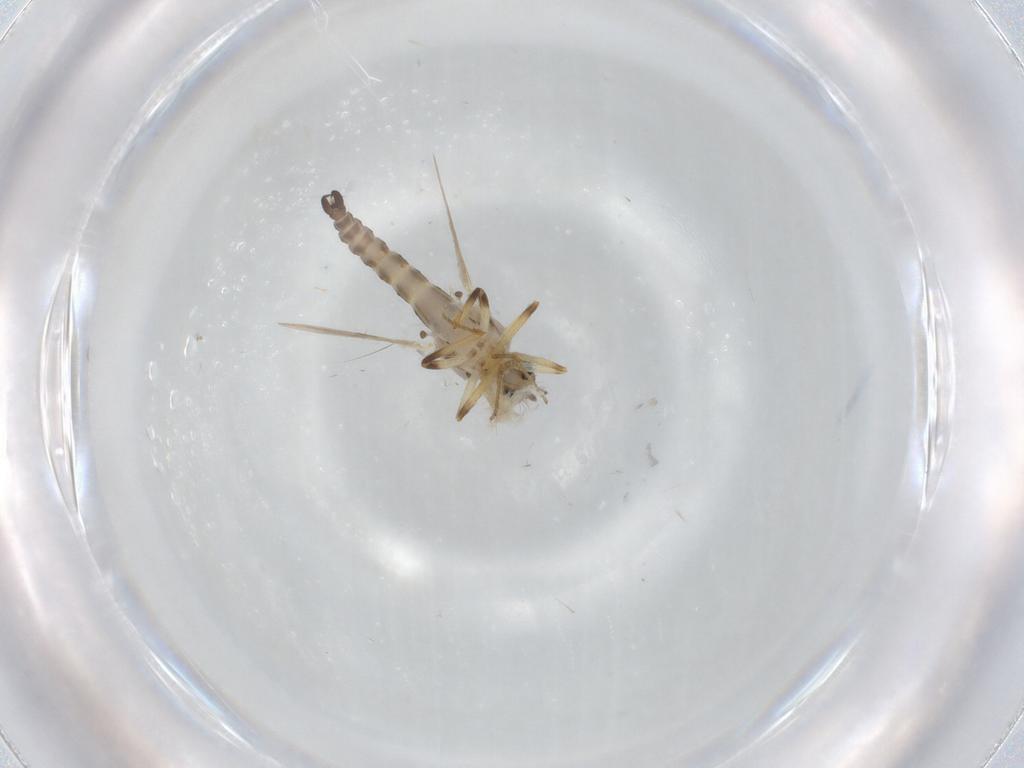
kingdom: Animalia
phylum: Arthropoda
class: Insecta
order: Diptera
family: Ceratopogonidae
